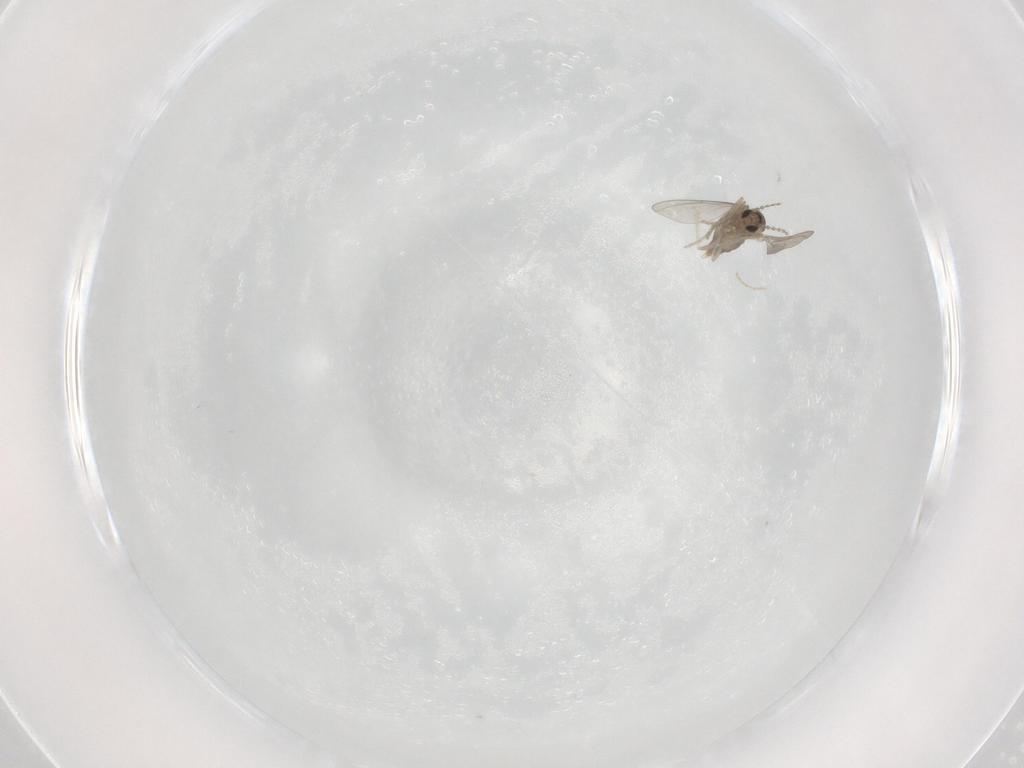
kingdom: Animalia
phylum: Arthropoda
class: Insecta
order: Diptera
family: Cecidomyiidae
